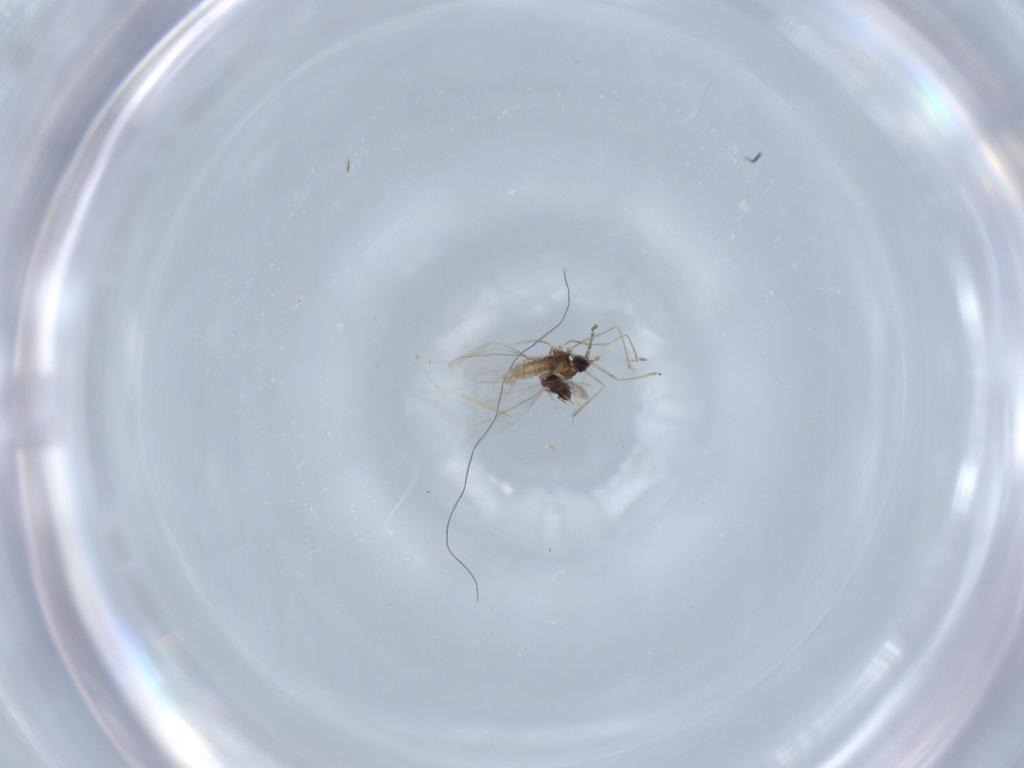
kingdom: Animalia
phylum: Arthropoda
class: Insecta
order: Diptera
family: Cecidomyiidae
